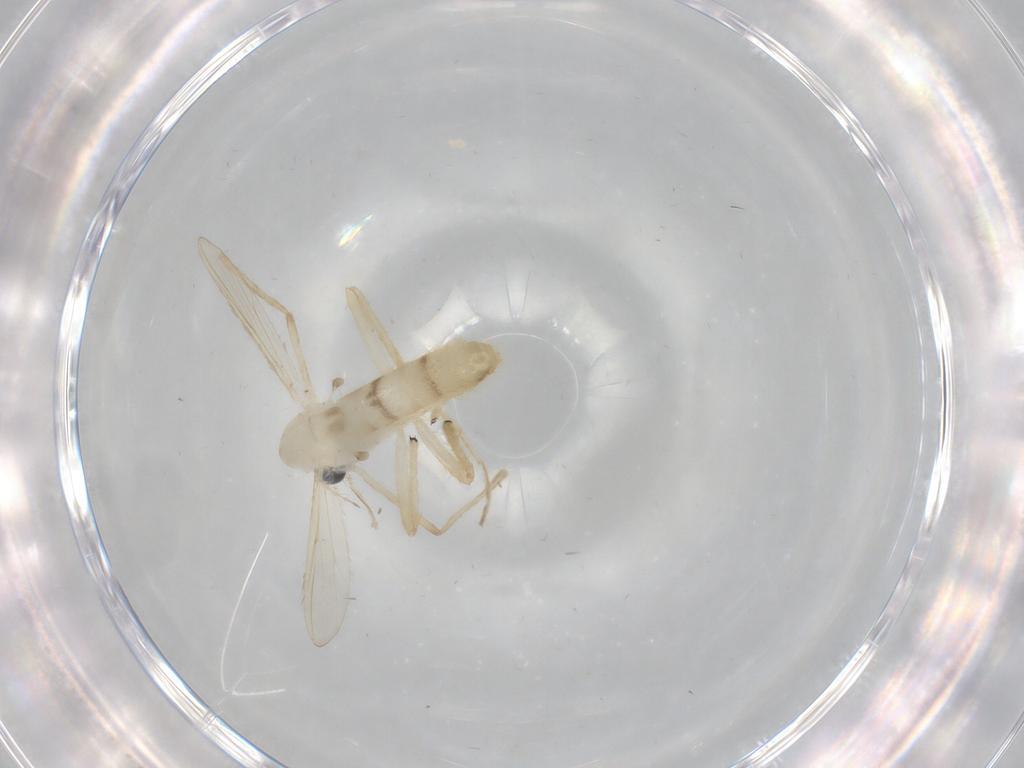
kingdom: Animalia
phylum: Arthropoda
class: Insecta
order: Diptera
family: Chironomidae
